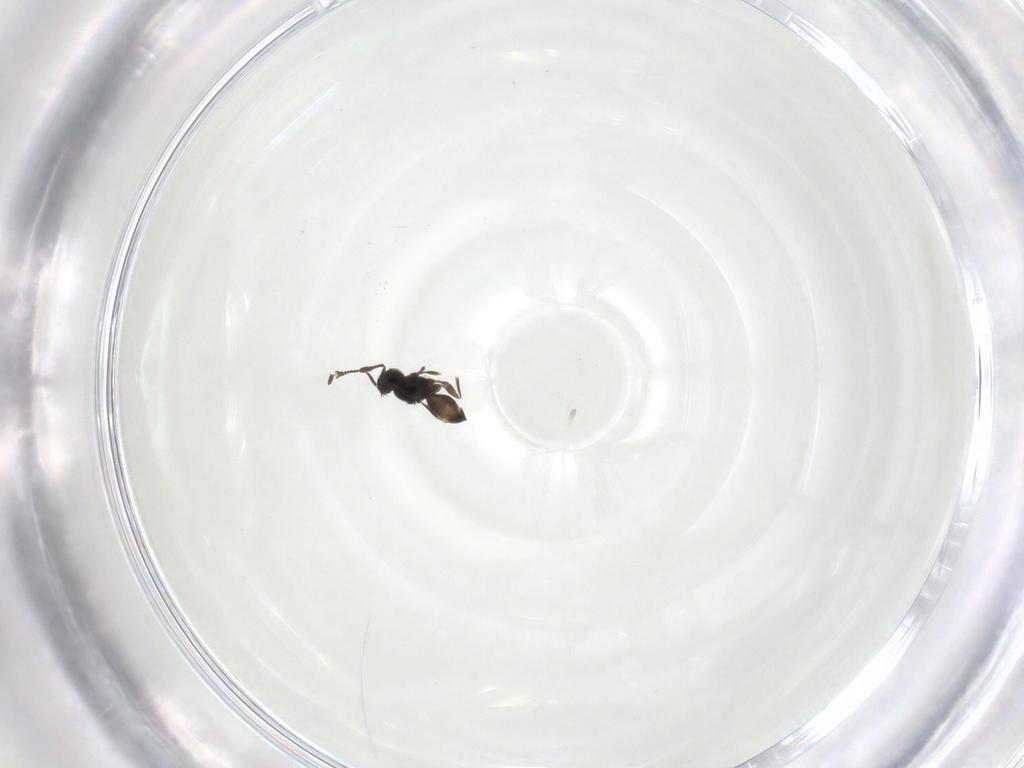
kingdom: Animalia
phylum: Arthropoda
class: Insecta
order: Hymenoptera
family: Scelionidae
